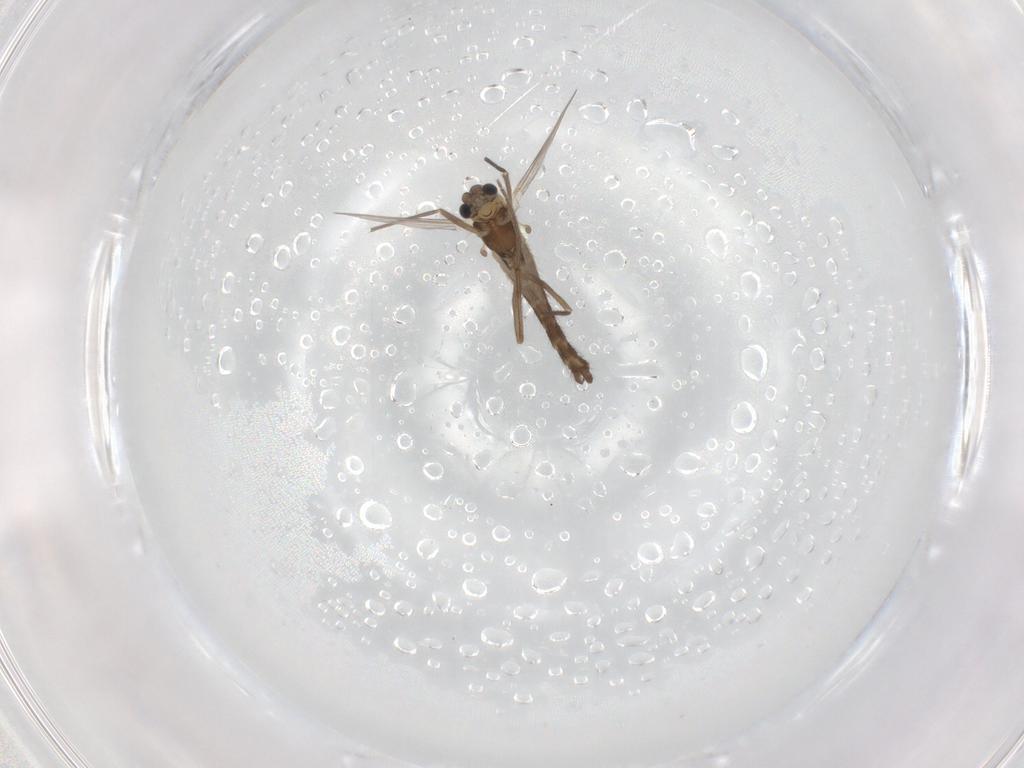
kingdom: Animalia
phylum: Arthropoda
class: Insecta
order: Diptera
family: Chironomidae
